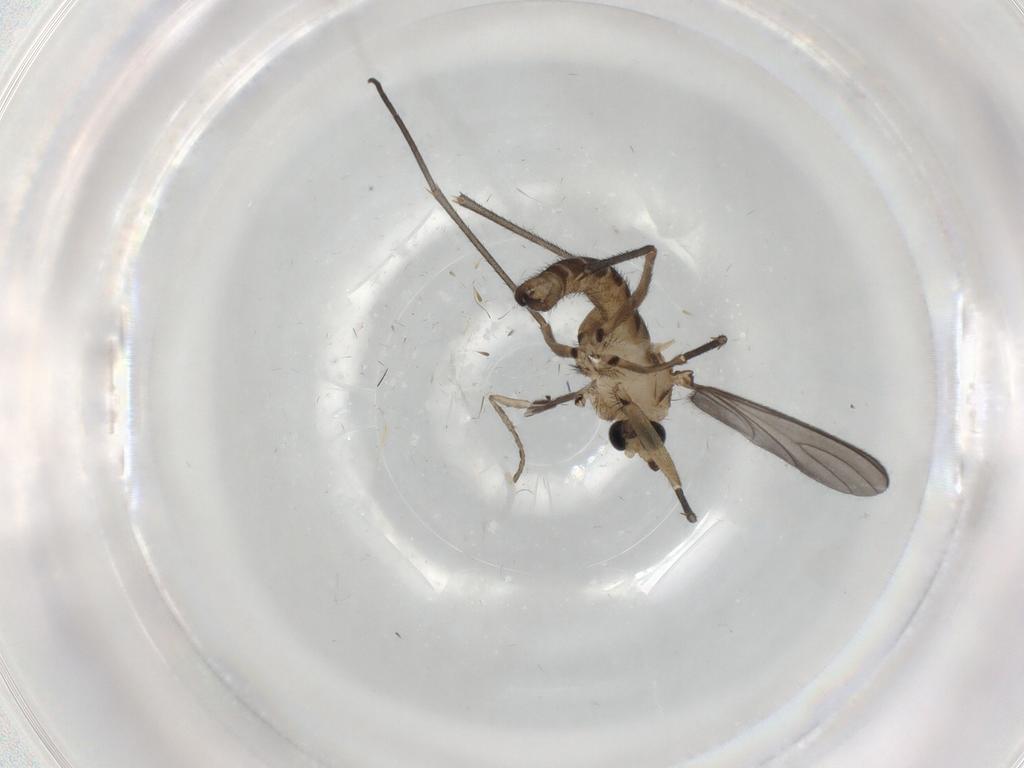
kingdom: Animalia
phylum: Arthropoda
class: Insecta
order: Diptera
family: Sciaridae
